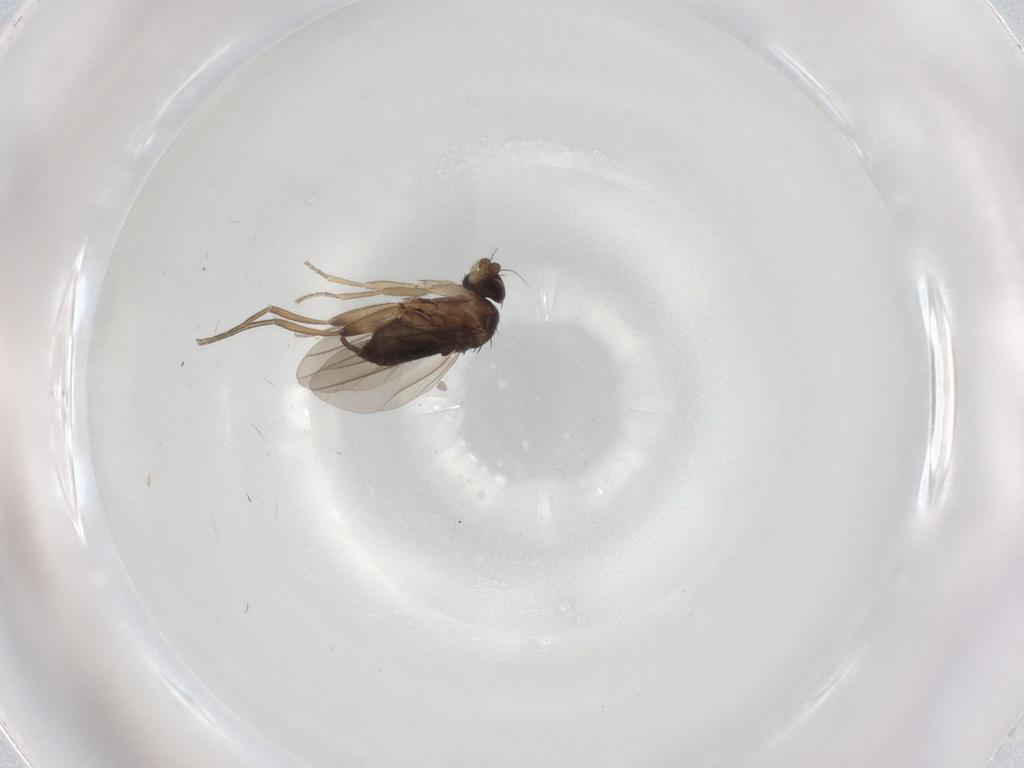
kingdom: Animalia
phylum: Arthropoda
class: Insecta
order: Diptera
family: Phoridae
